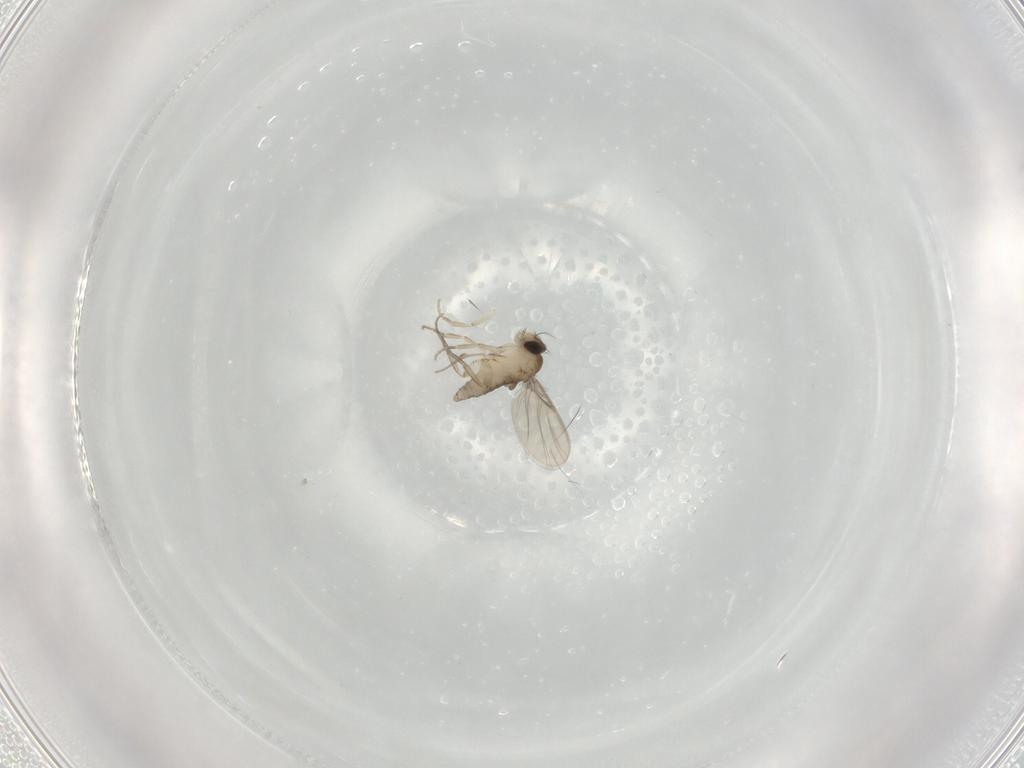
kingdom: Animalia
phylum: Arthropoda
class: Insecta
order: Diptera
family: Phoridae
